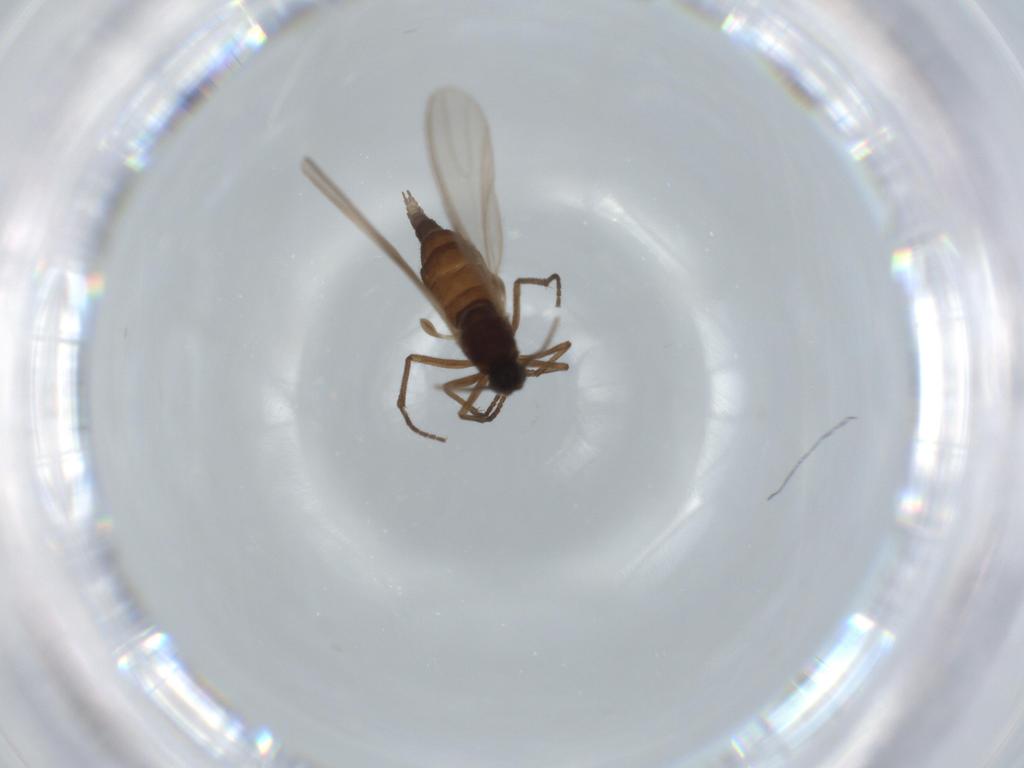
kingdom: Animalia
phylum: Arthropoda
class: Insecta
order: Diptera
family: Sciaridae
